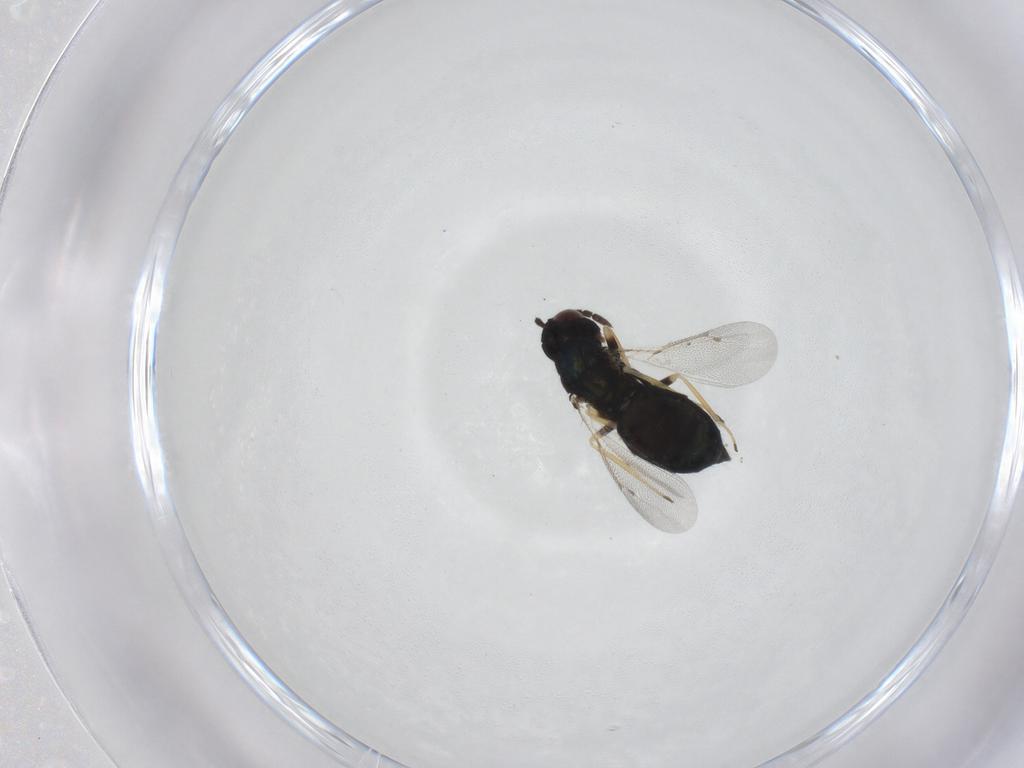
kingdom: Animalia
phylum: Arthropoda
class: Insecta
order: Hymenoptera
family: Eulophidae
